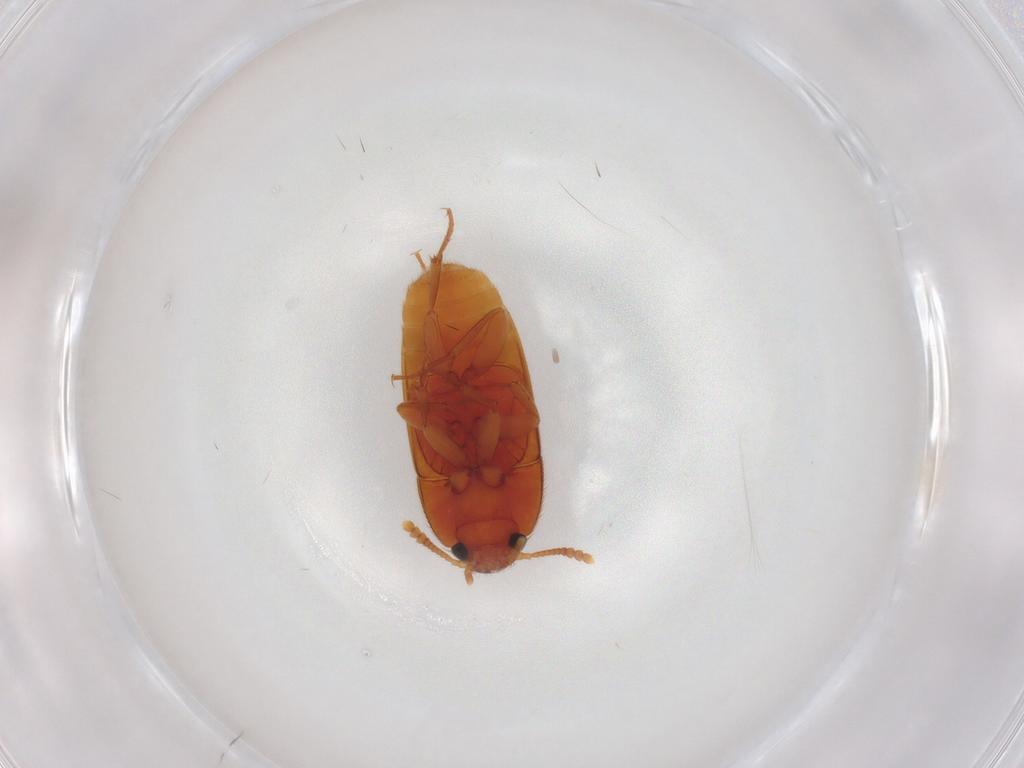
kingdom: Animalia
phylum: Arthropoda
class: Insecta
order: Coleoptera
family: Mycetophagidae
